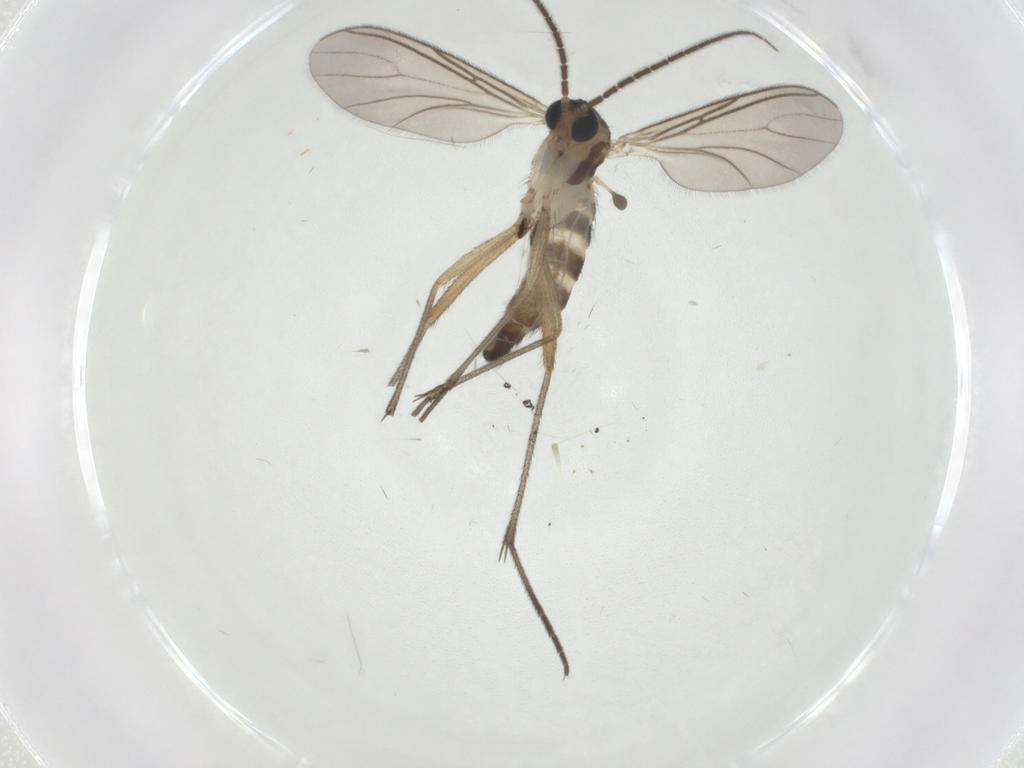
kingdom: Animalia
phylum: Arthropoda
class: Insecta
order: Diptera
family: Sciaridae
